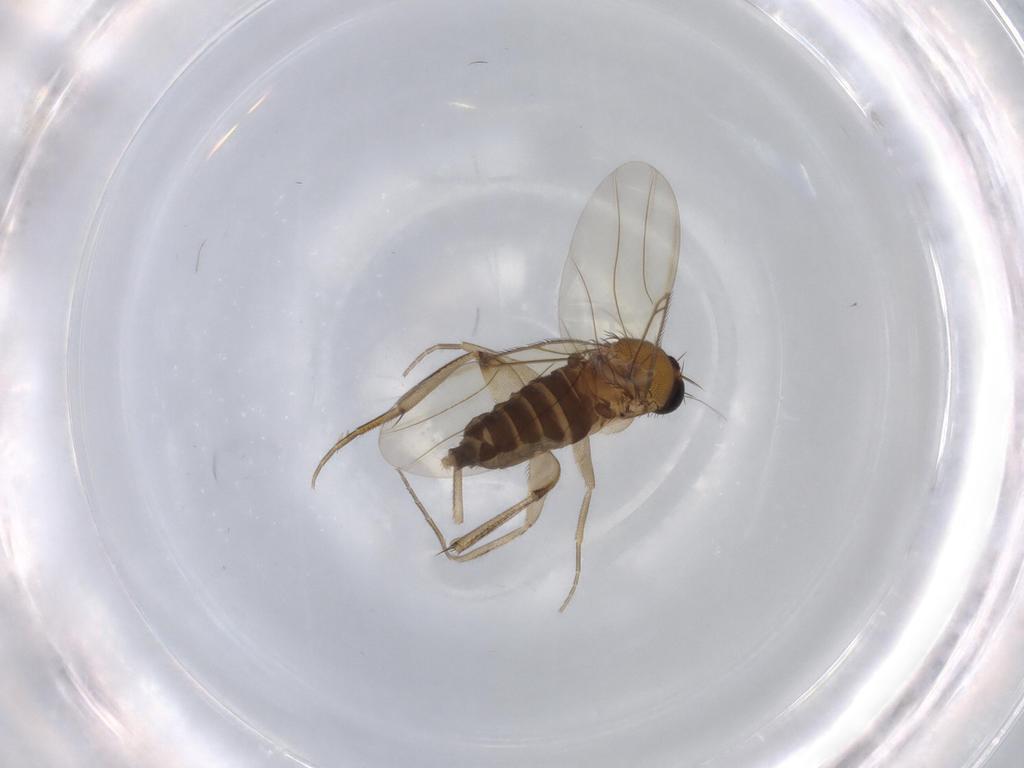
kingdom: Animalia
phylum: Arthropoda
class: Insecta
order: Diptera
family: Phoridae
